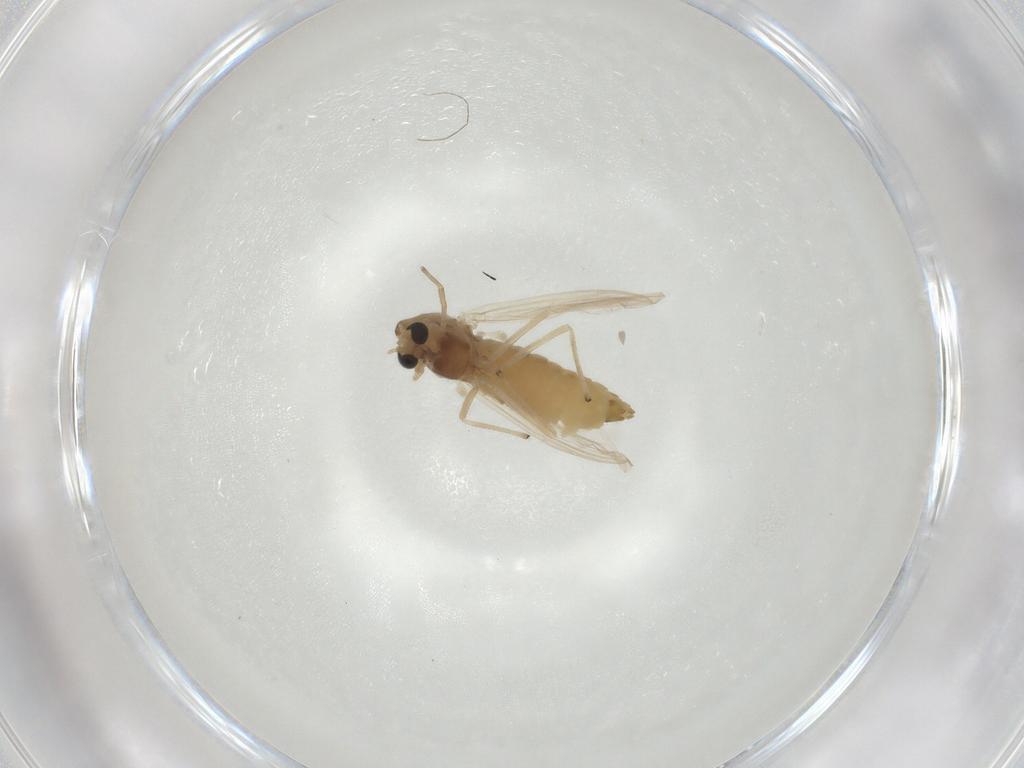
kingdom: Animalia
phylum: Arthropoda
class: Insecta
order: Diptera
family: Chironomidae
